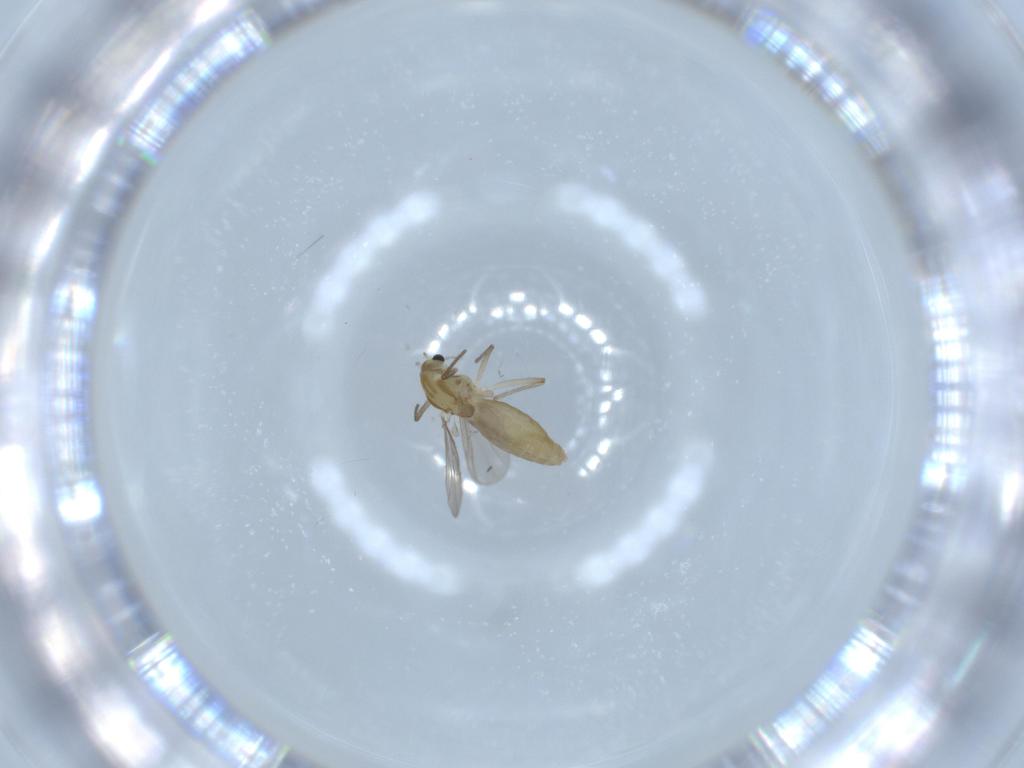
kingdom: Animalia
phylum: Arthropoda
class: Insecta
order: Diptera
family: Chironomidae
